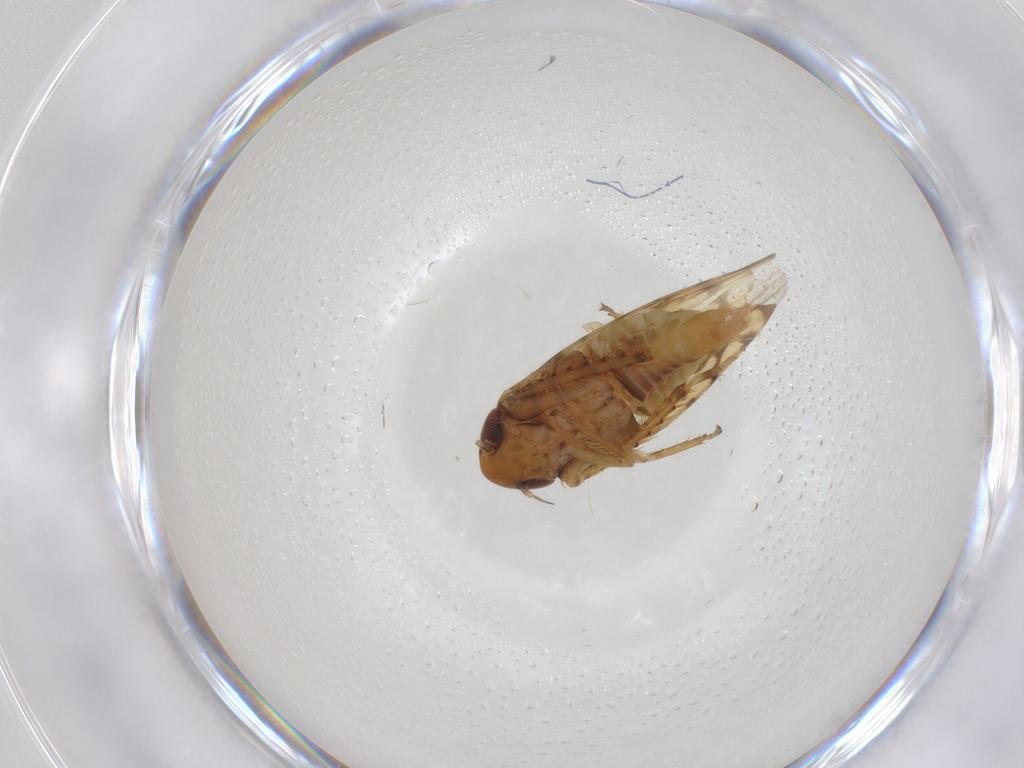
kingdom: Animalia
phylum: Arthropoda
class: Insecta
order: Hemiptera
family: Cicadellidae
